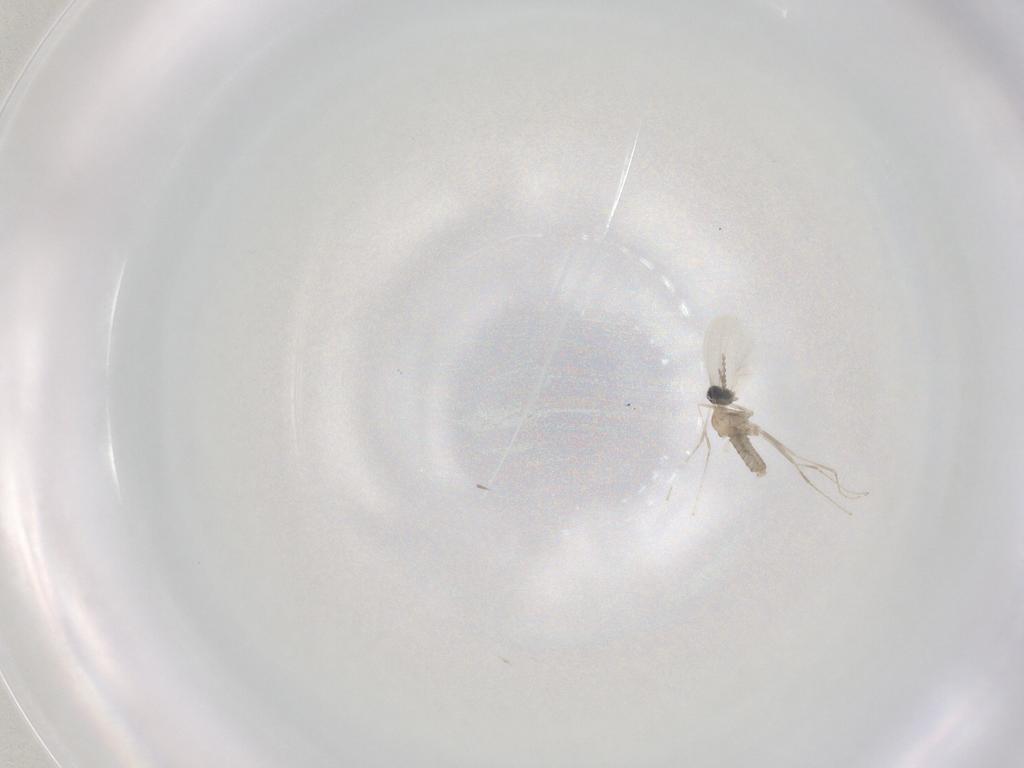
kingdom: Animalia
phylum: Arthropoda
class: Insecta
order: Diptera
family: Cecidomyiidae
